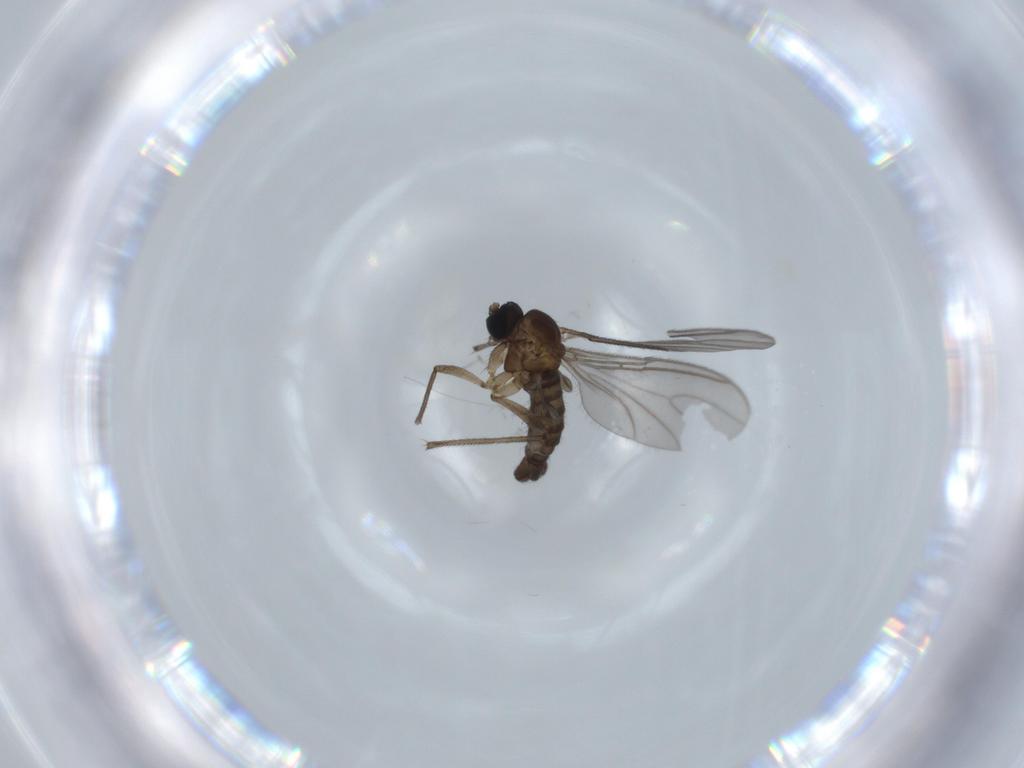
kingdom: Animalia
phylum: Arthropoda
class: Insecta
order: Diptera
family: Sciaridae
